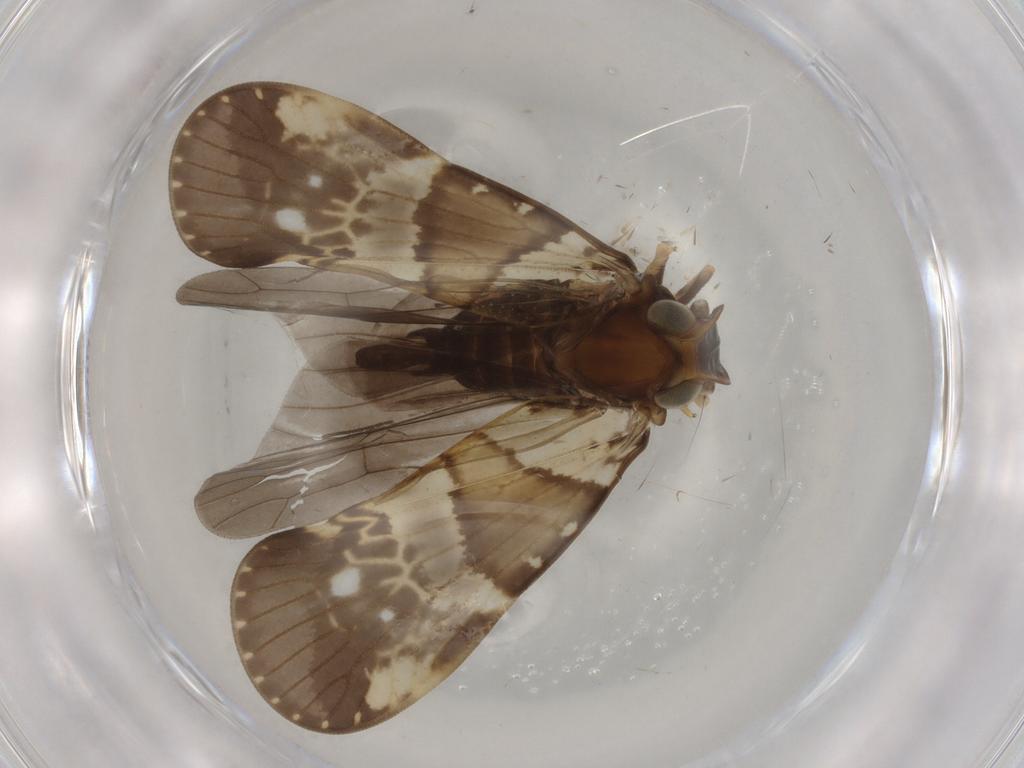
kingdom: Animalia
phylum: Arthropoda
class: Insecta
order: Hemiptera
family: Cixiidae
